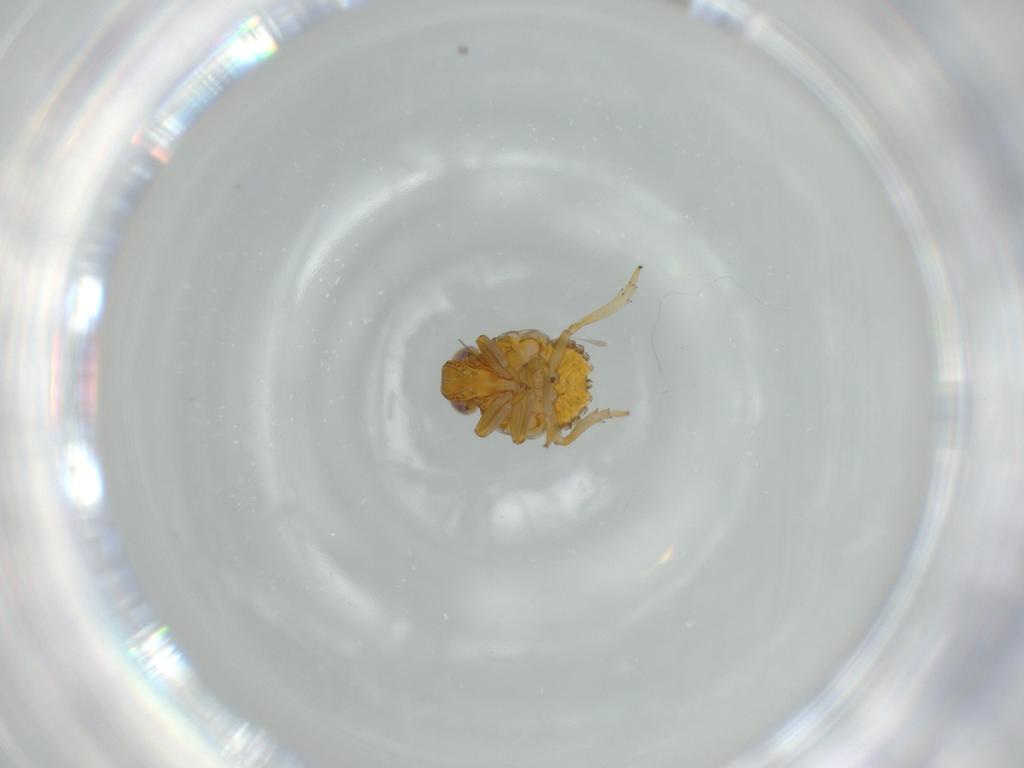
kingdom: Animalia
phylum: Arthropoda
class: Insecta
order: Hemiptera
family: Issidae
